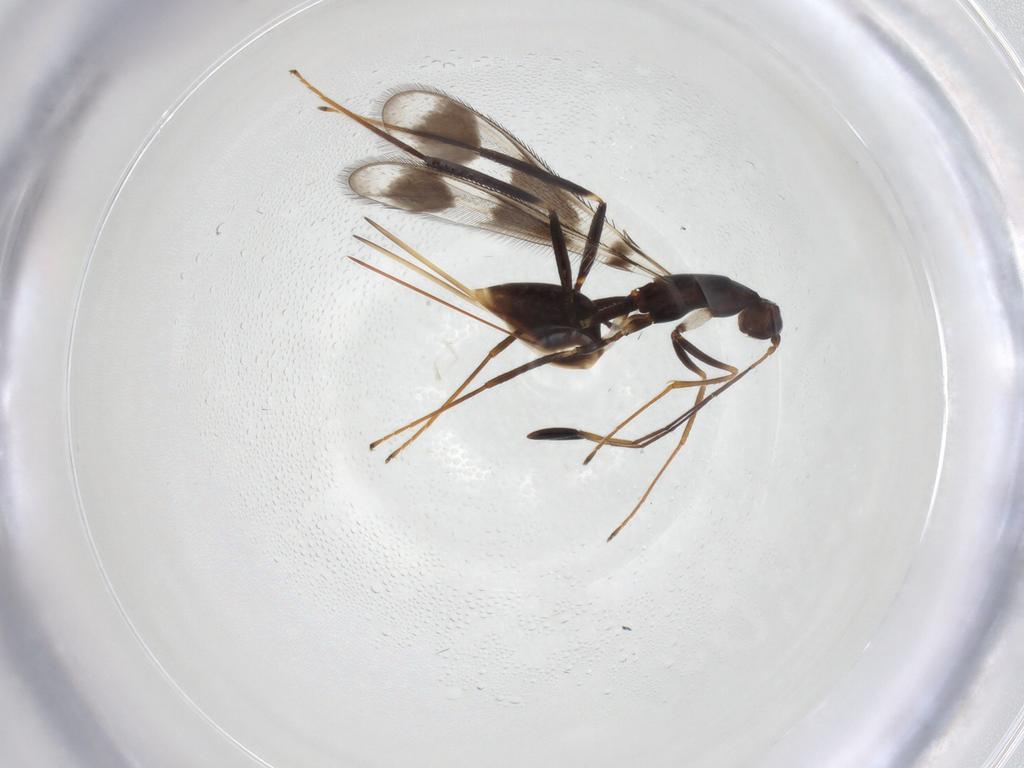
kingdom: Animalia
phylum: Arthropoda
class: Insecta
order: Hymenoptera
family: Mymaridae
